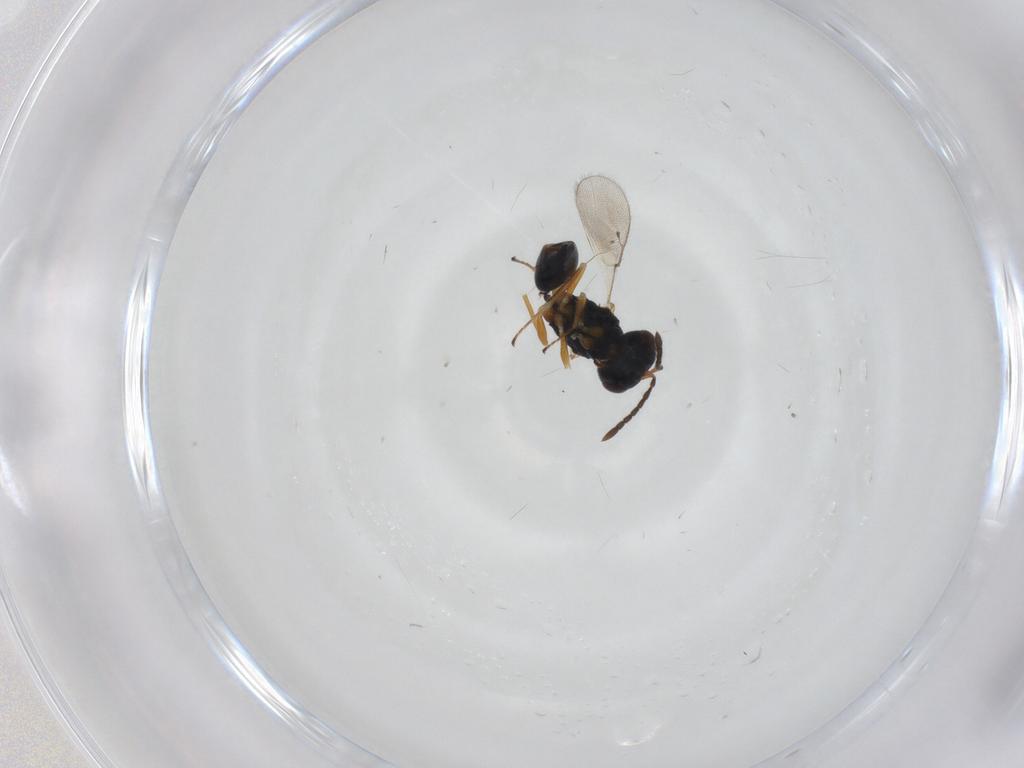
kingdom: Animalia
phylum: Arthropoda
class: Insecta
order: Hymenoptera
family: Pteromalidae
